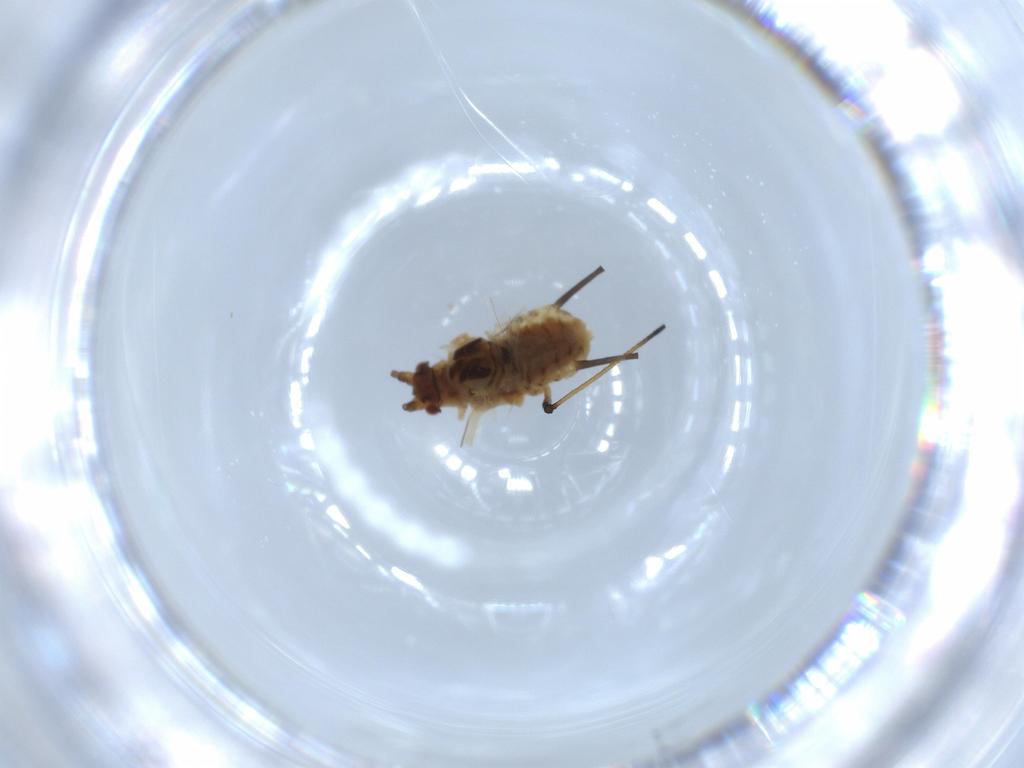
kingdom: Animalia
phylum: Arthropoda
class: Insecta
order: Hemiptera
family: Aphididae
